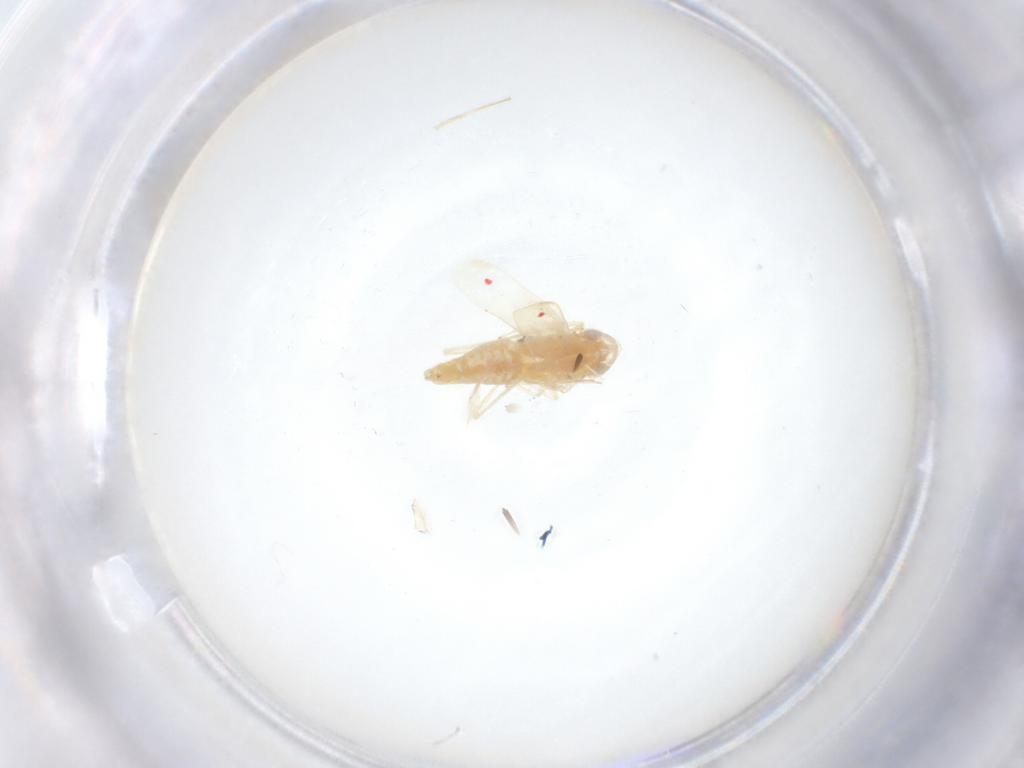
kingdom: Animalia
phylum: Arthropoda
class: Insecta
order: Hemiptera
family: Cicadellidae
